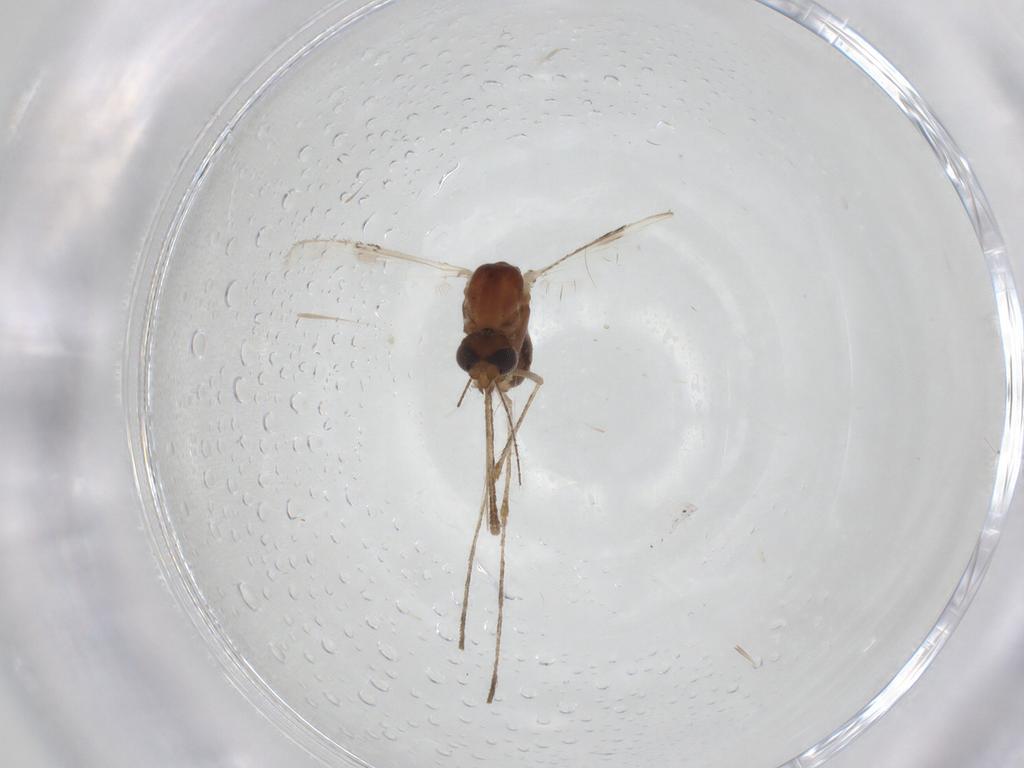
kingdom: Animalia
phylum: Arthropoda
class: Insecta
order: Diptera
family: Culicidae
